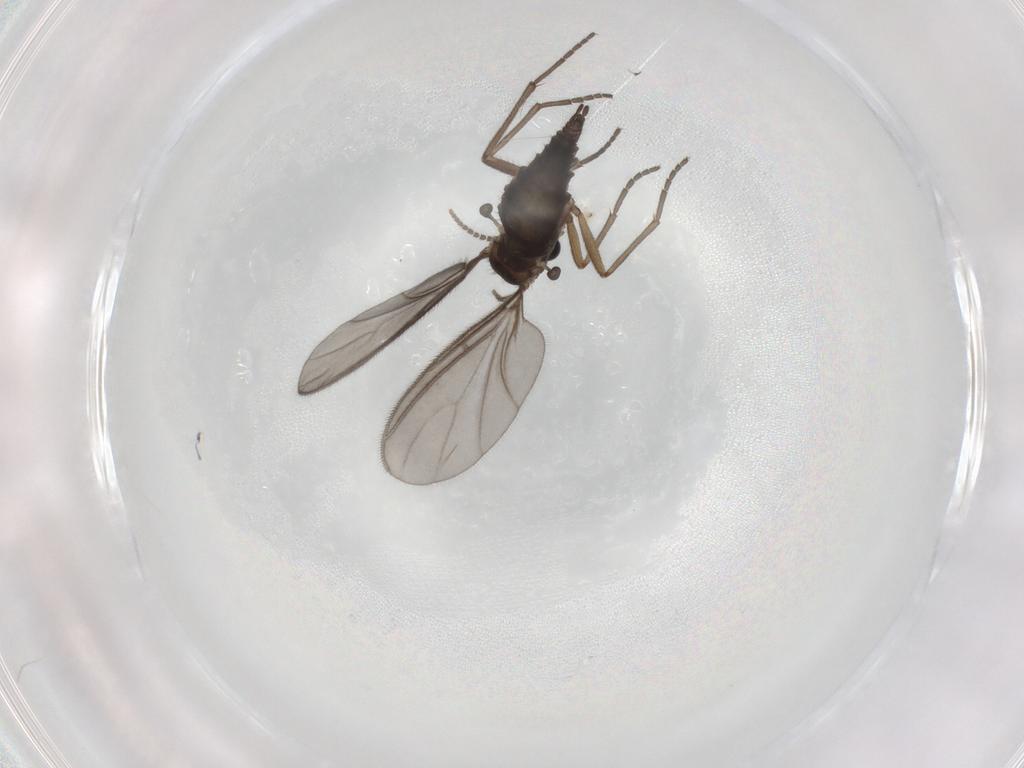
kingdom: Animalia
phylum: Arthropoda
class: Insecta
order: Diptera
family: Sciaridae
